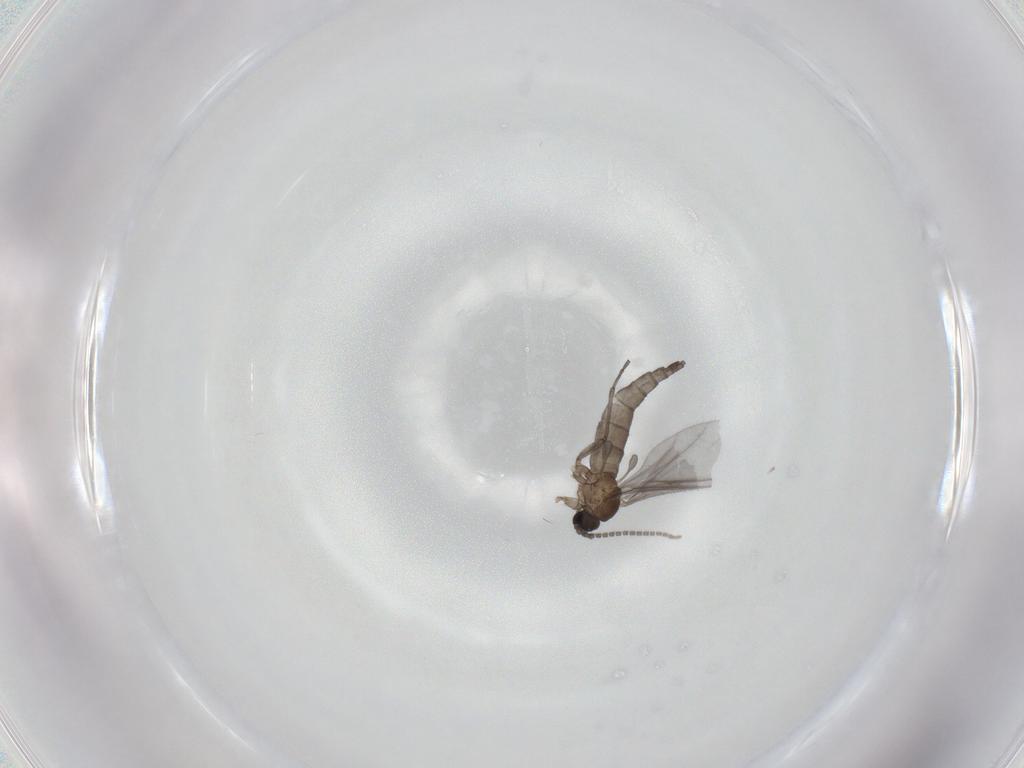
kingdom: Animalia
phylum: Arthropoda
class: Insecta
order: Diptera
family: Sciaridae
